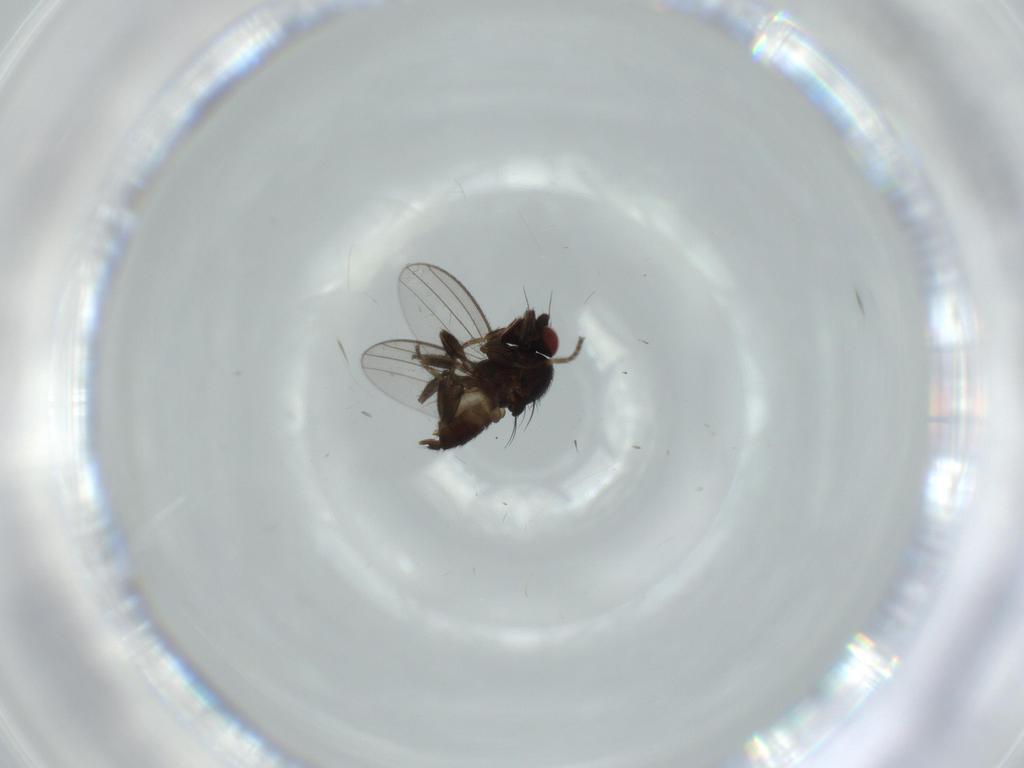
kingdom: Animalia
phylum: Arthropoda
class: Insecta
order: Diptera
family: Milichiidae
